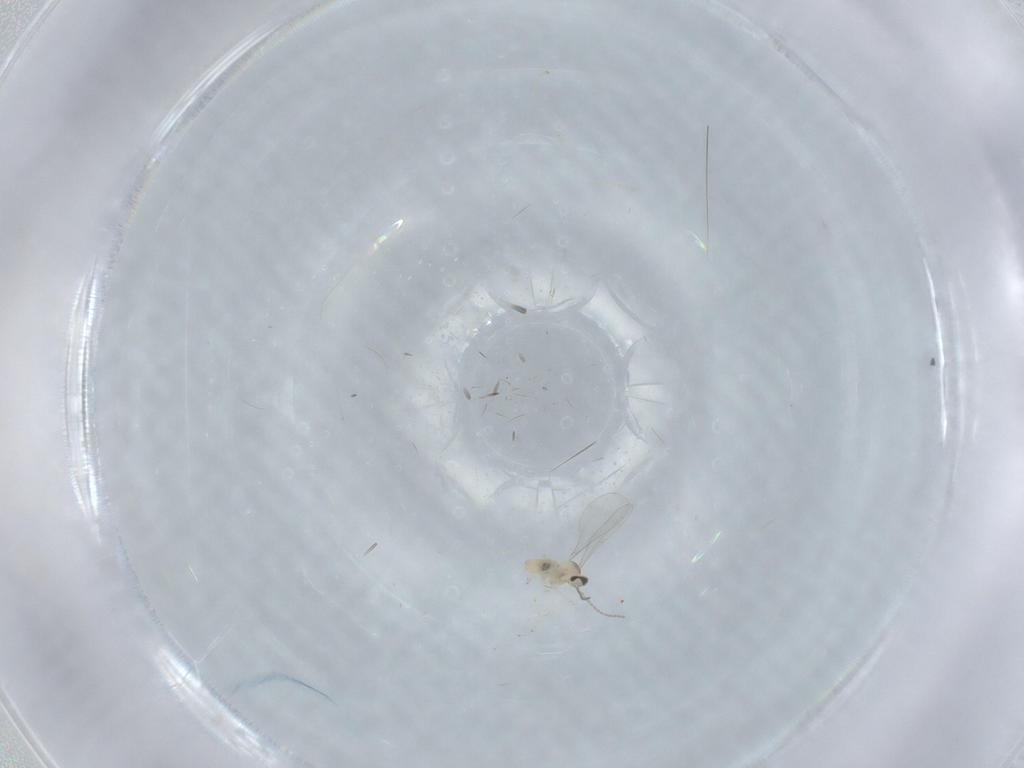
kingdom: Animalia
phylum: Arthropoda
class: Insecta
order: Diptera
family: Cecidomyiidae
